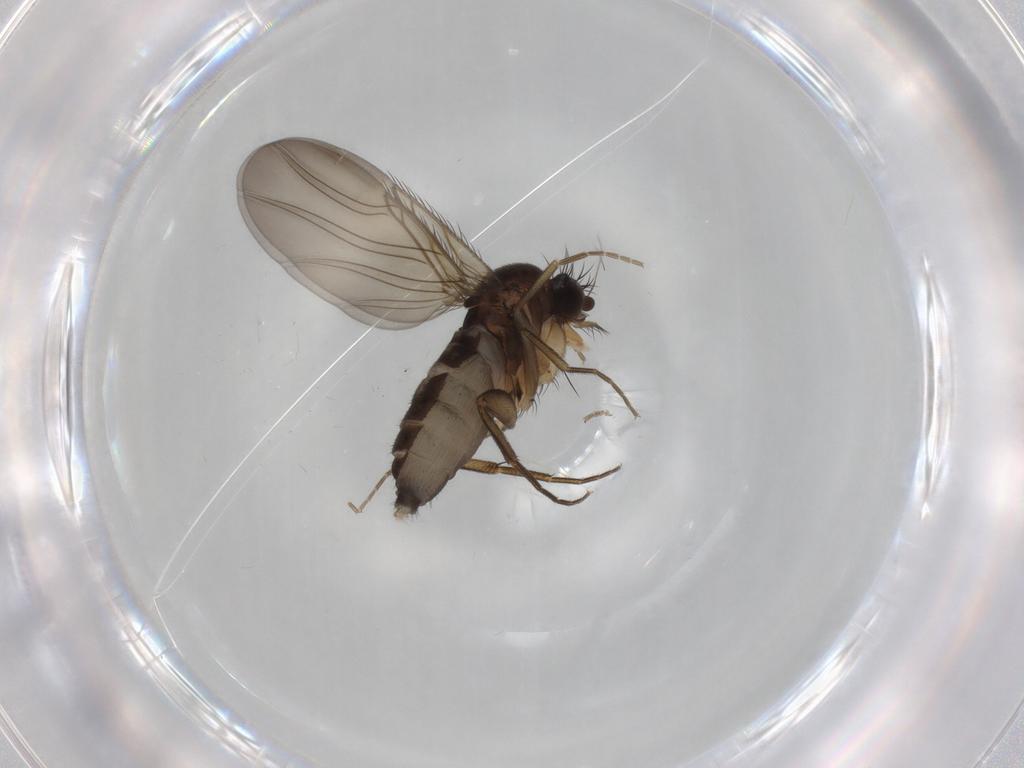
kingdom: Animalia
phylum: Arthropoda
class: Insecta
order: Diptera
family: Phoridae
